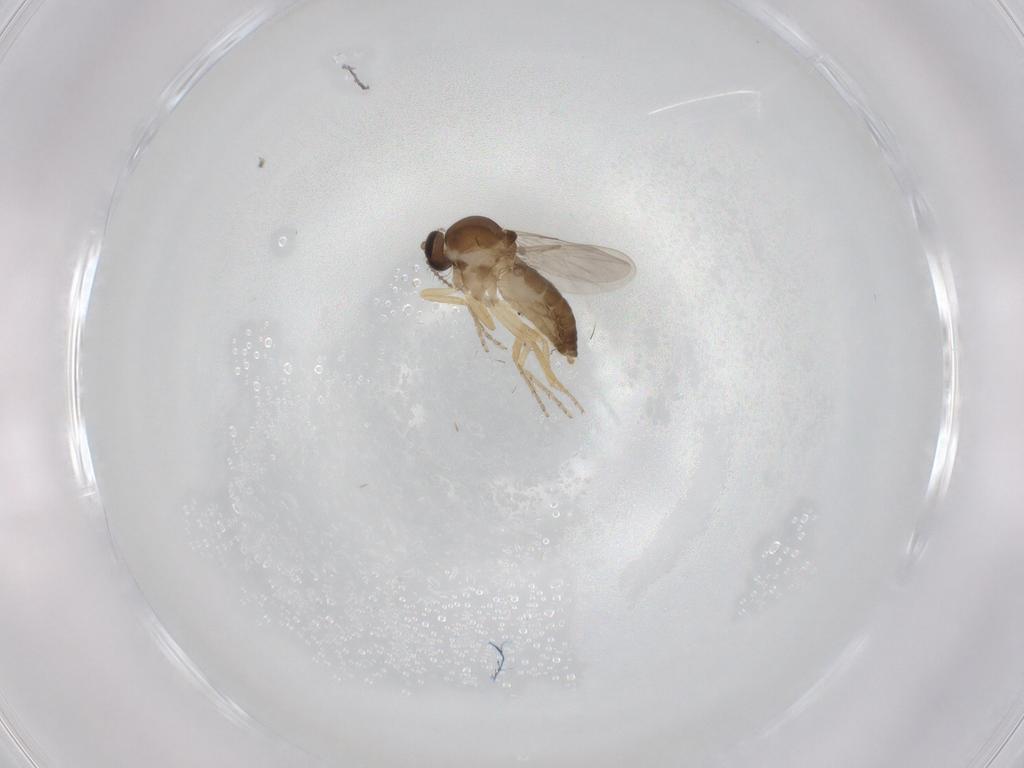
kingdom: Animalia
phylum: Arthropoda
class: Insecta
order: Diptera
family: Ceratopogonidae
